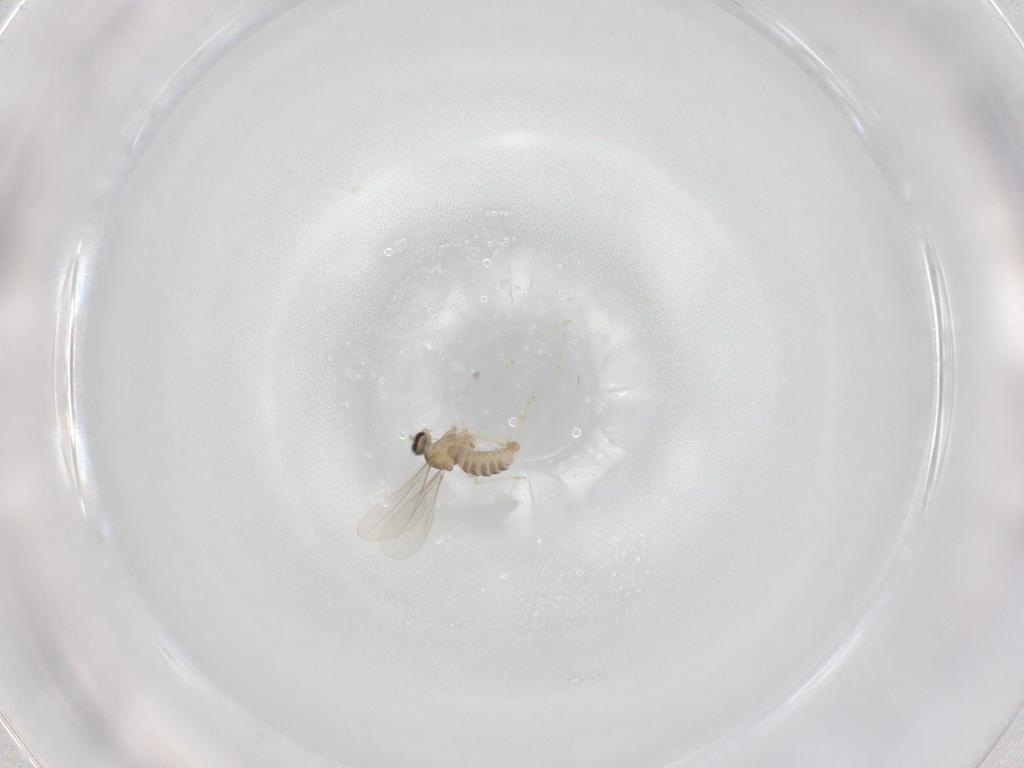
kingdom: Animalia
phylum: Arthropoda
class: Insecta
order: Diptera
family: Cecidomyiidae
